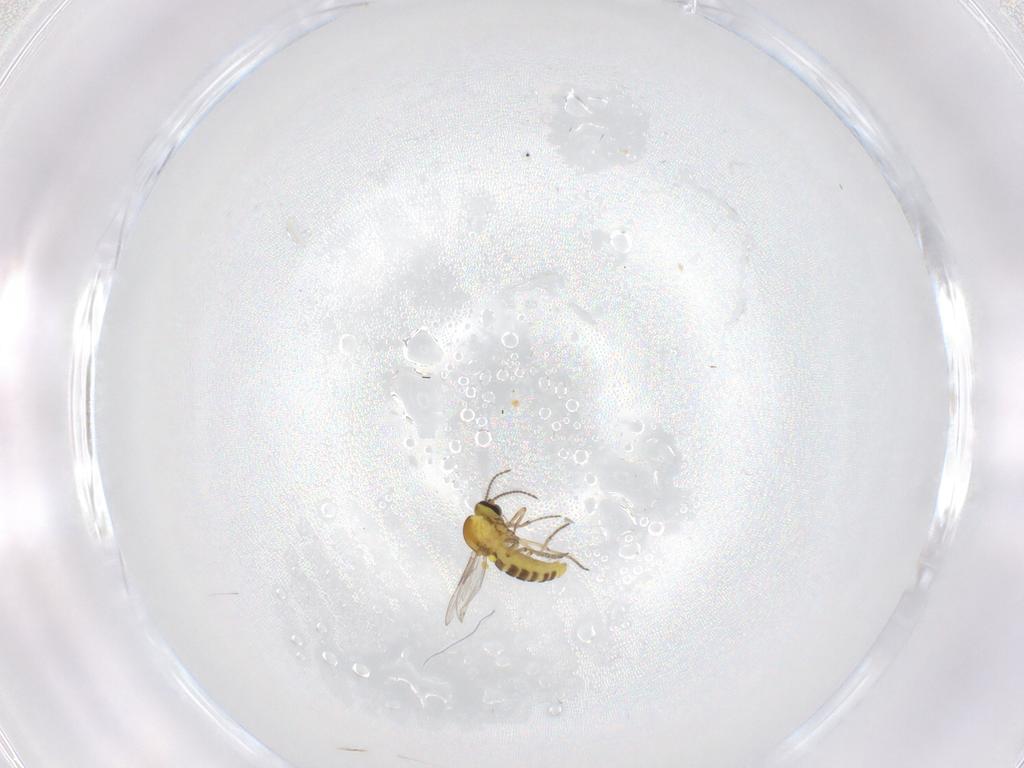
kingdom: Animalia
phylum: Arthropoda
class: Insecta
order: Diptera
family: Ceratopogonidae
